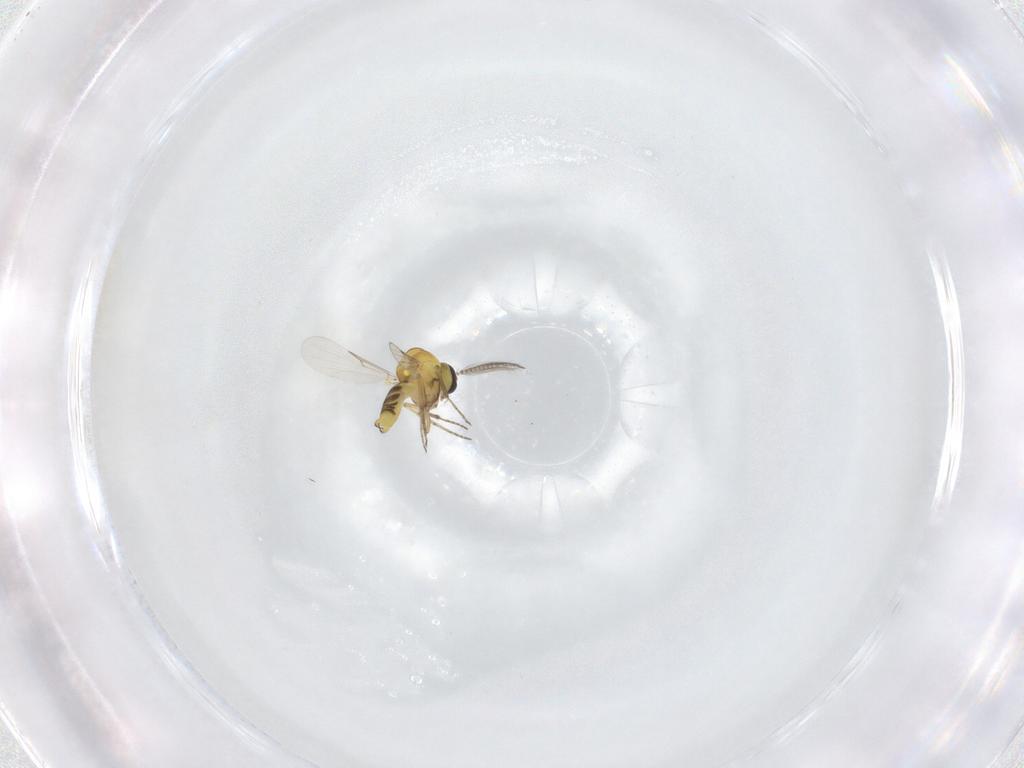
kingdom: Animalia
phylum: Arthropoda
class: Insecta
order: Diptera
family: Ceratopogonidae
